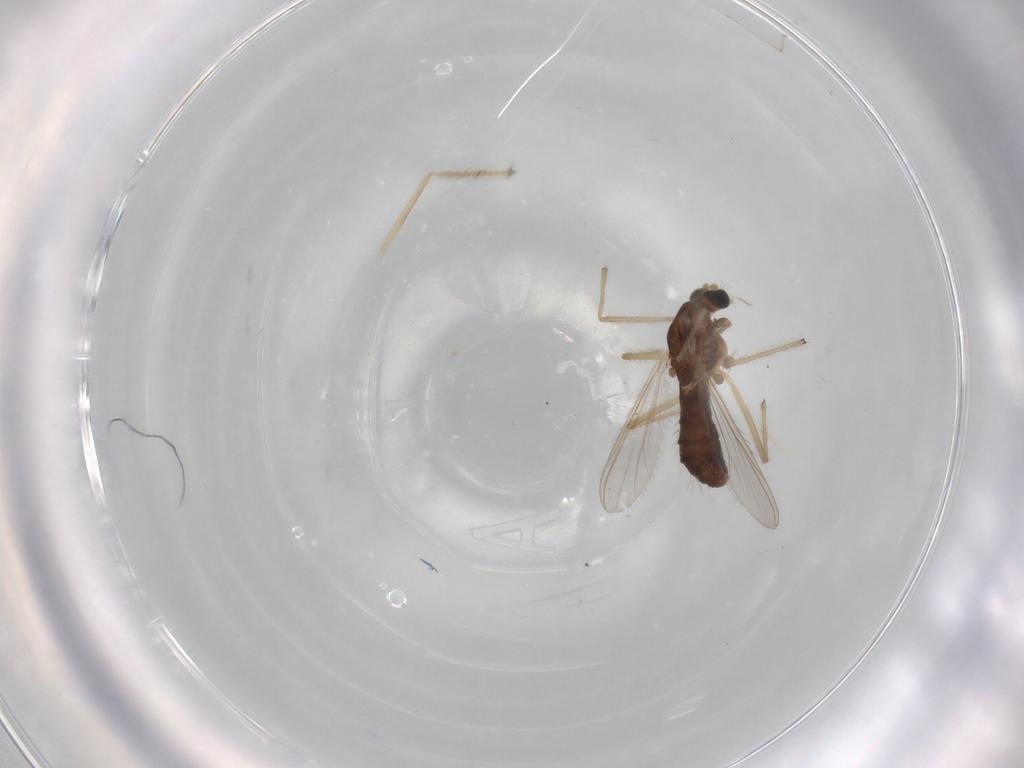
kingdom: Animalia
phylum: Arthropoda
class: Insecta
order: Diptera
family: Chironomidae
